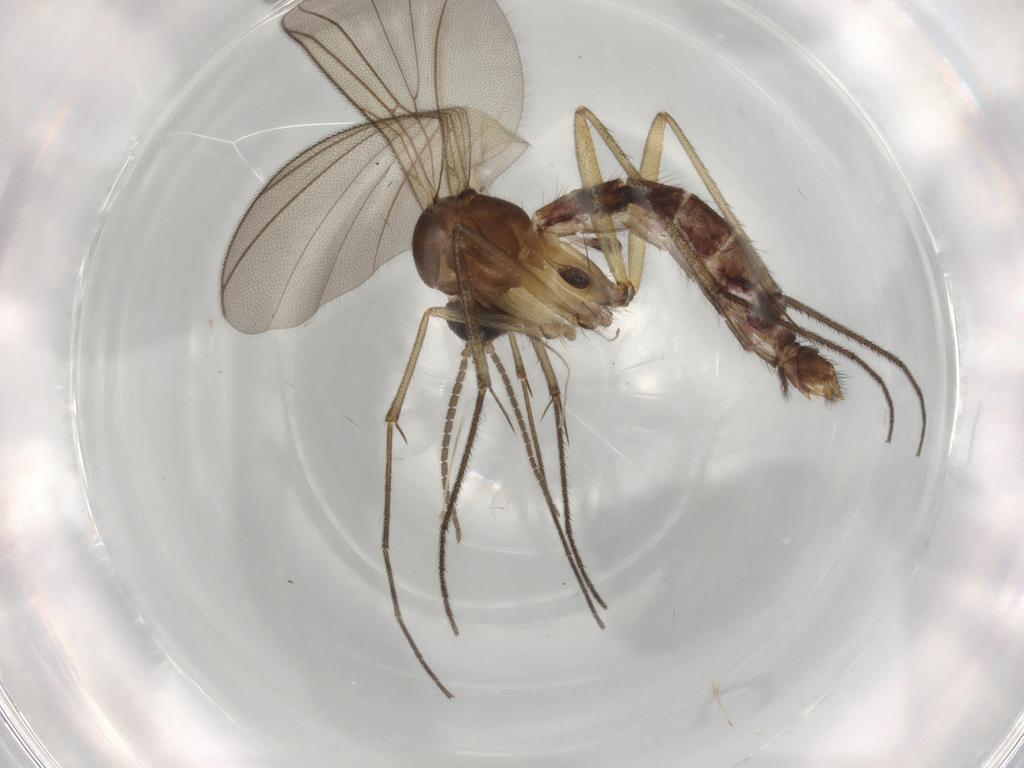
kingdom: Animalia
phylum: Arthropoda
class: Insecta
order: Diptera
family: Mycetophilidae
